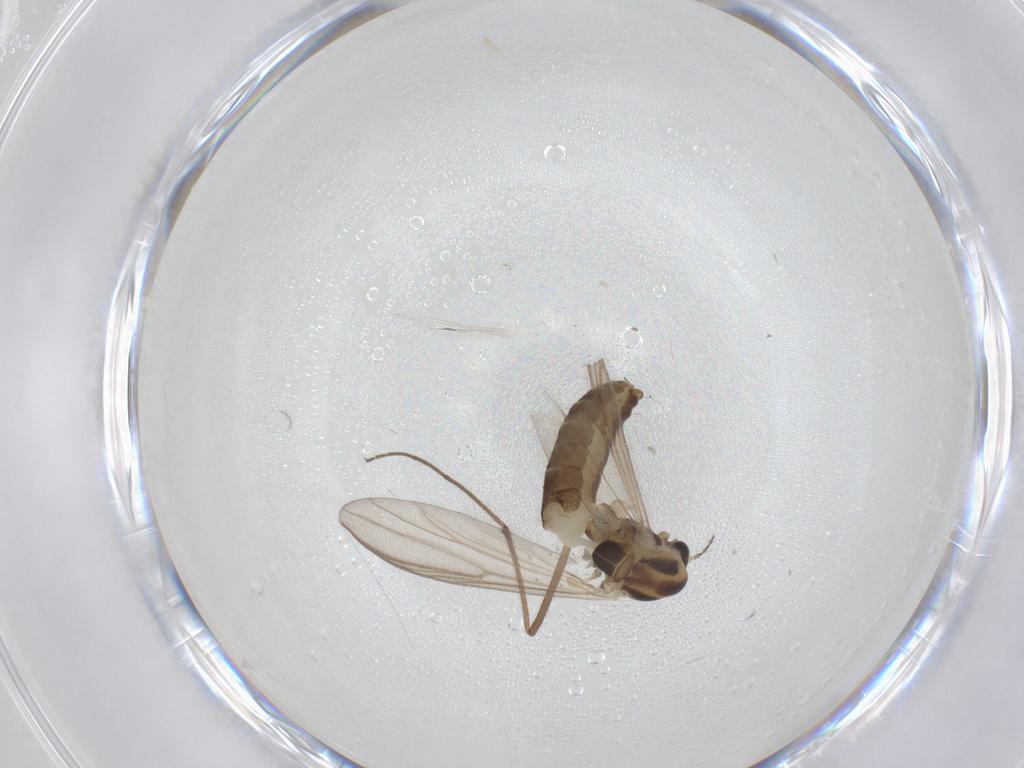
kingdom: Animalia
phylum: Arthropoda
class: Insecta
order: Diptera
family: Chironomidae
